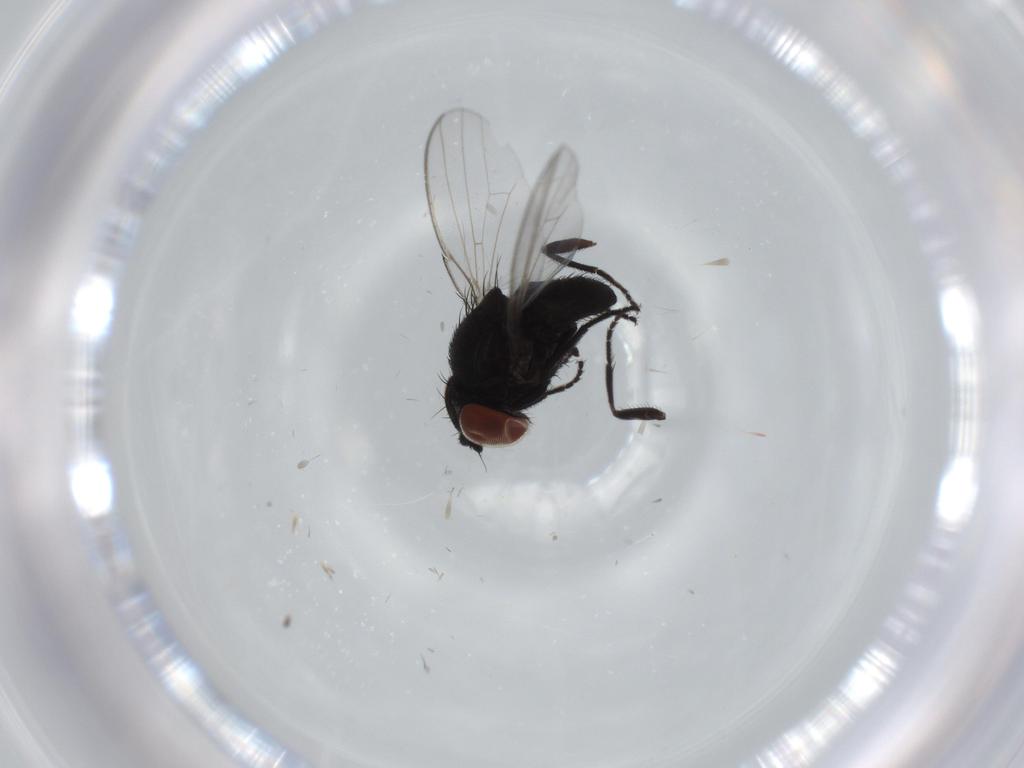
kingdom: Animalia
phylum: Arthropoda
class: Insecta
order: Diptera
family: Milichiidae
